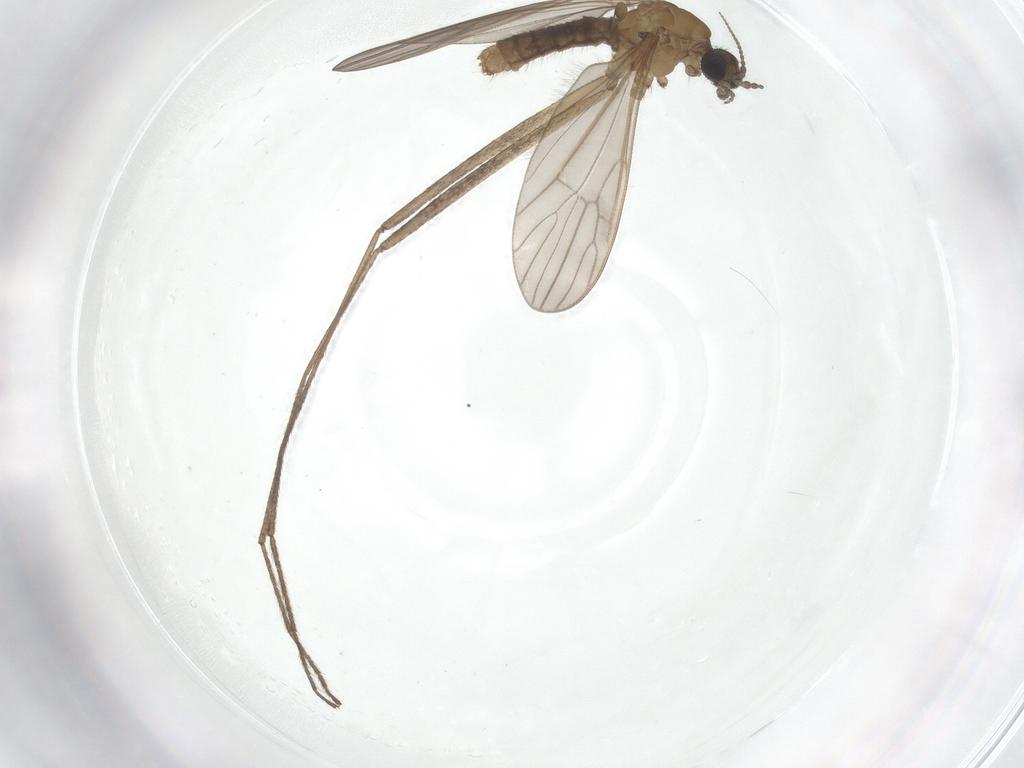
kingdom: Animalia
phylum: Arthropoda
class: Insecta
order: Diptera
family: Limoniidae
